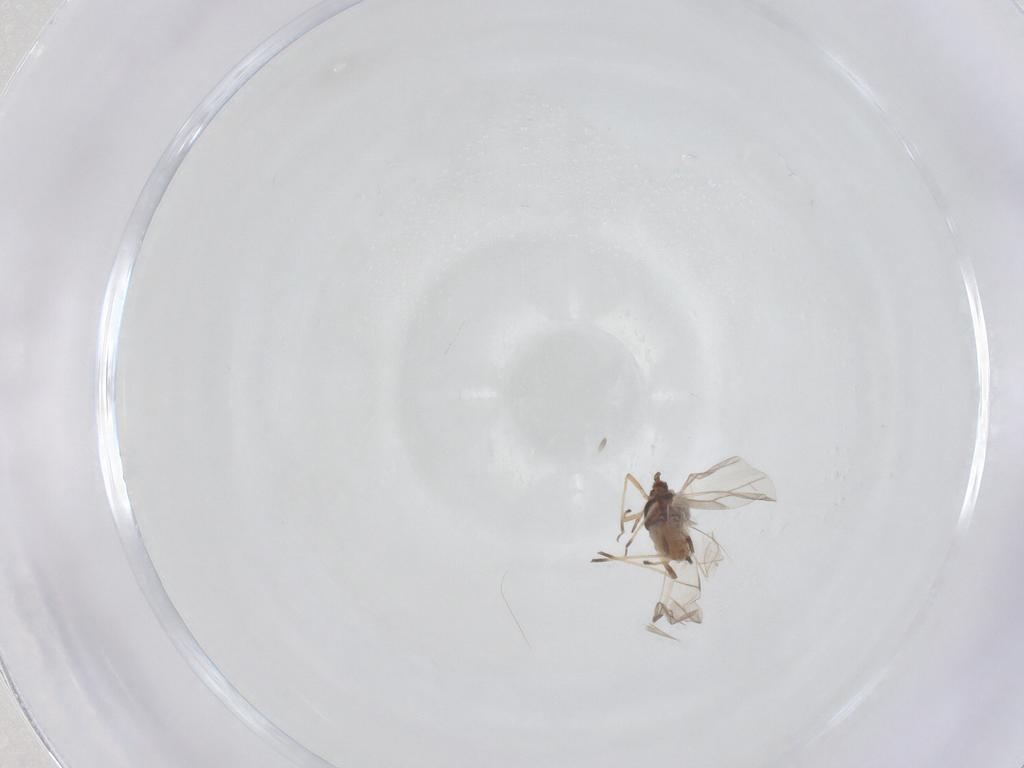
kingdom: Animalia
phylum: Arthropoda
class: Insecta
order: Hemiptera
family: Aphididae
